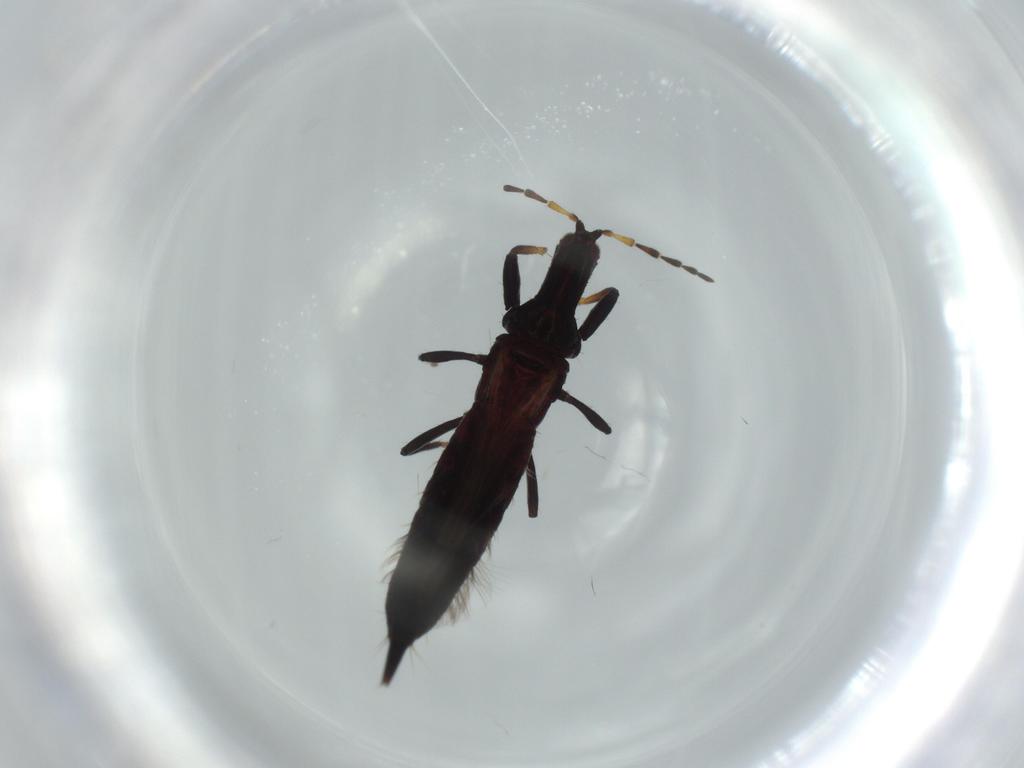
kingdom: Animalia
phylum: Arthropoda
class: Insecta
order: Thysanoptera
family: Phlaeothripidae
